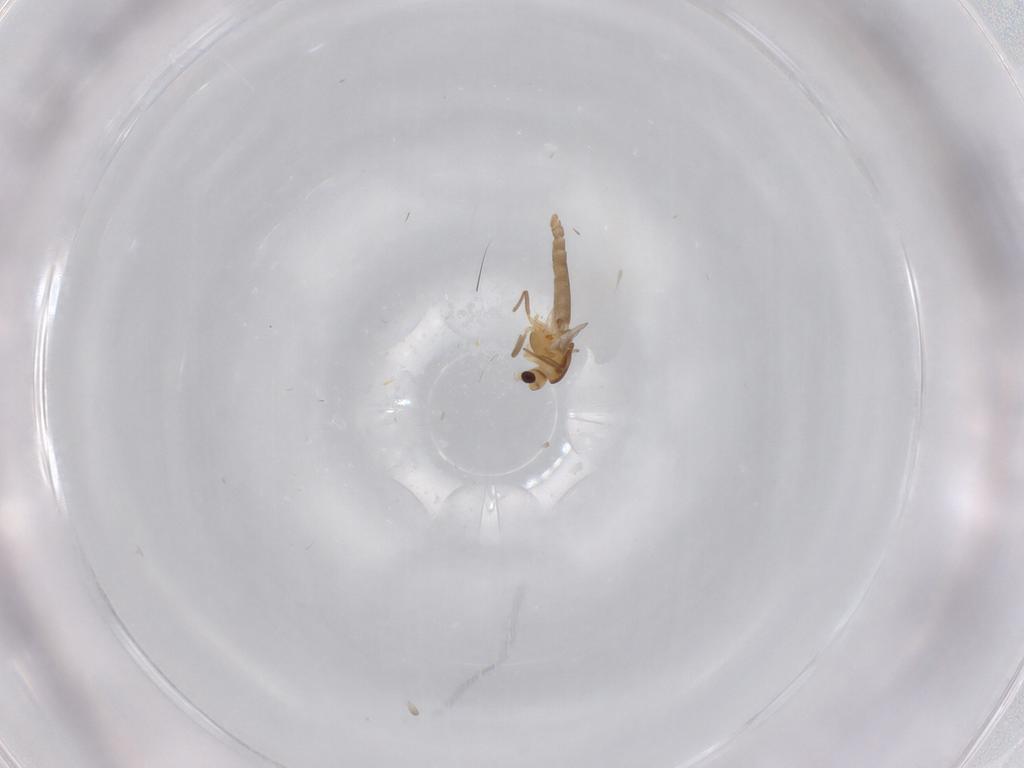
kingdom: Animalia
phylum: Arthropoda
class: Insecta
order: Diptera
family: Chironomidae
